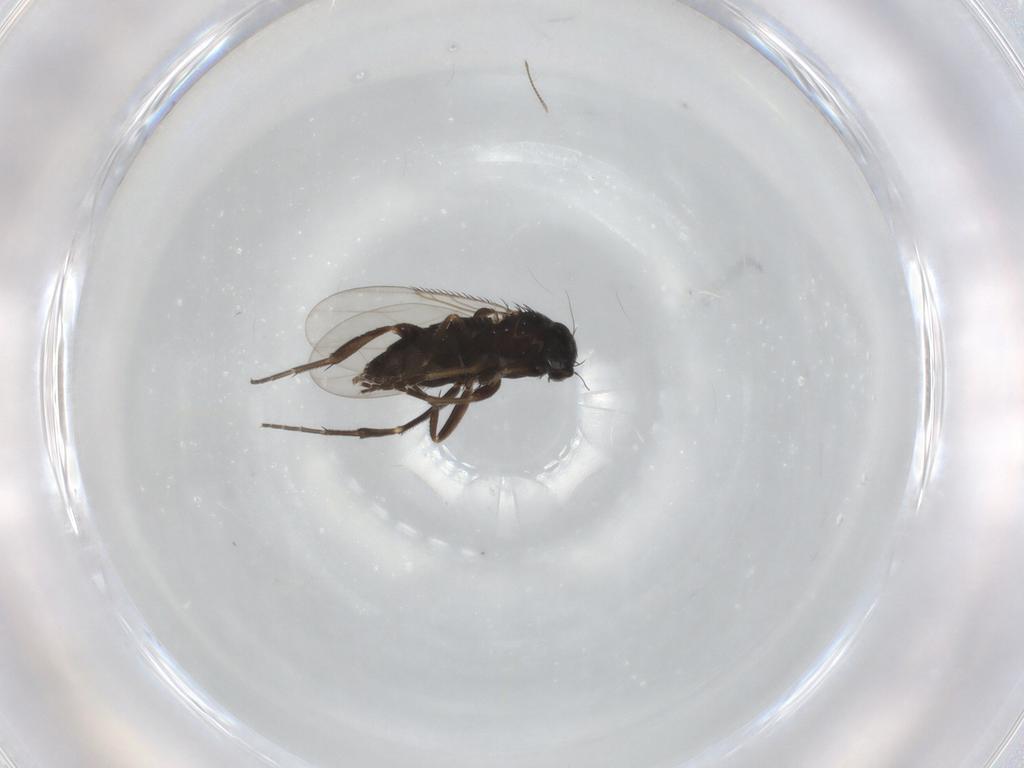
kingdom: Animalia
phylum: Arthropoda
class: Insecta
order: Diptera
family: Phoridae
